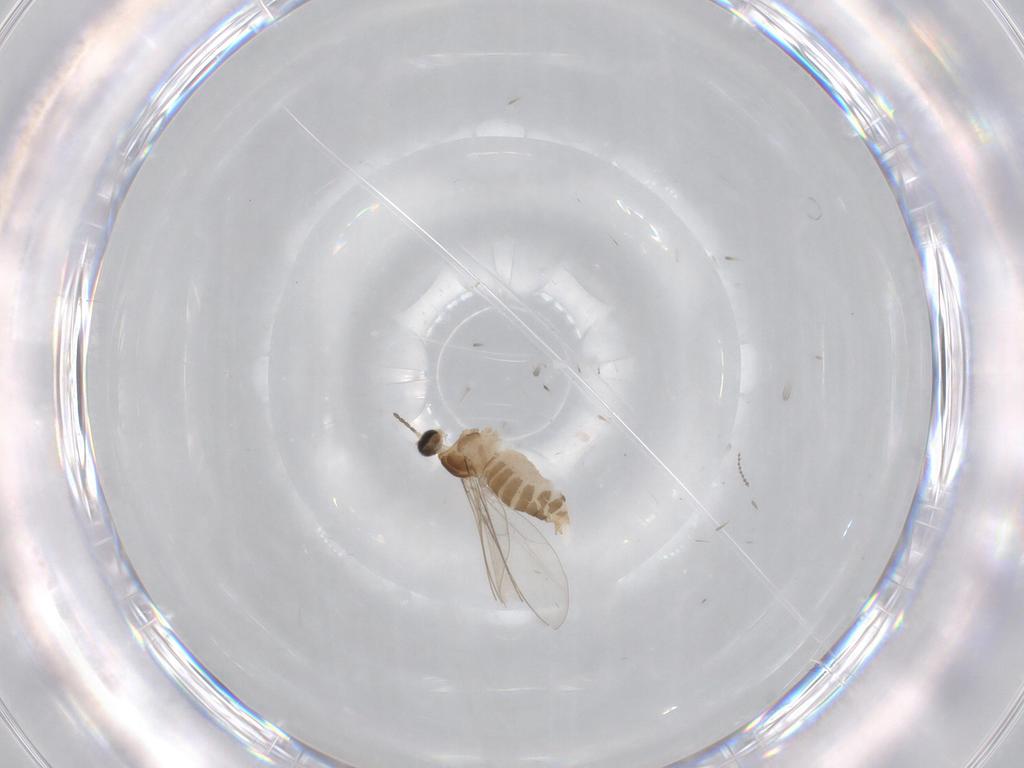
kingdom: Animalia
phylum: Arthropoda
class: Insecta
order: Diptera
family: Cecidomyiidae
